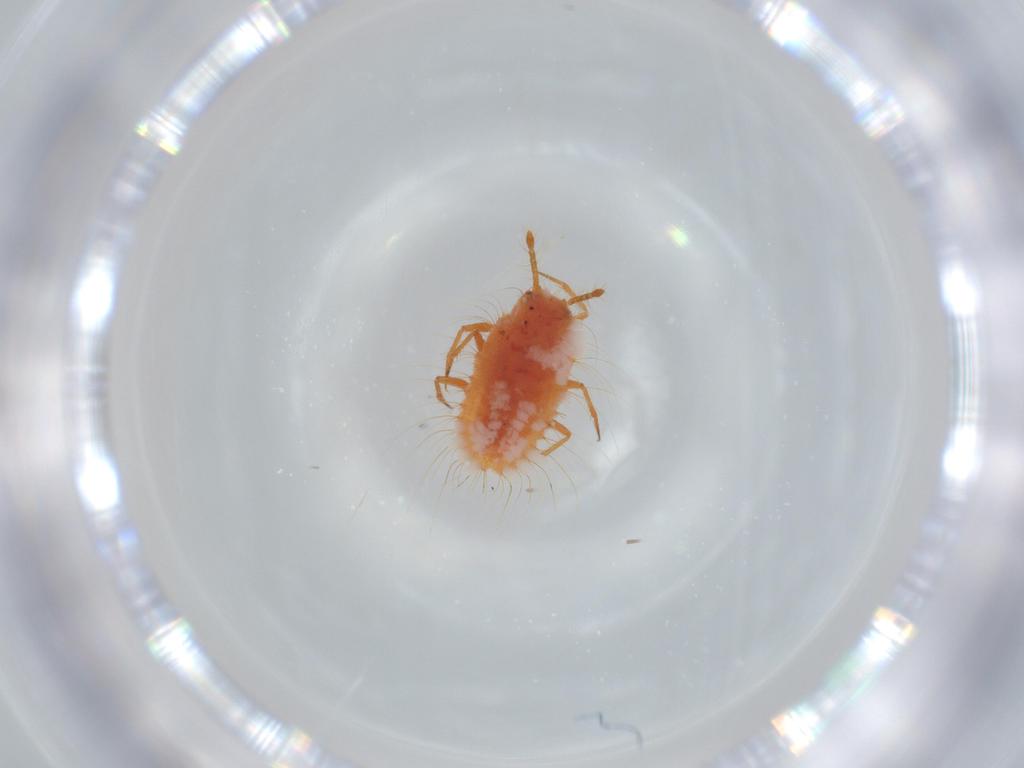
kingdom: Animalia
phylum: Arthropoda
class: Insecta
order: Hemiptera
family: Coccoidea_incertae_sedis
